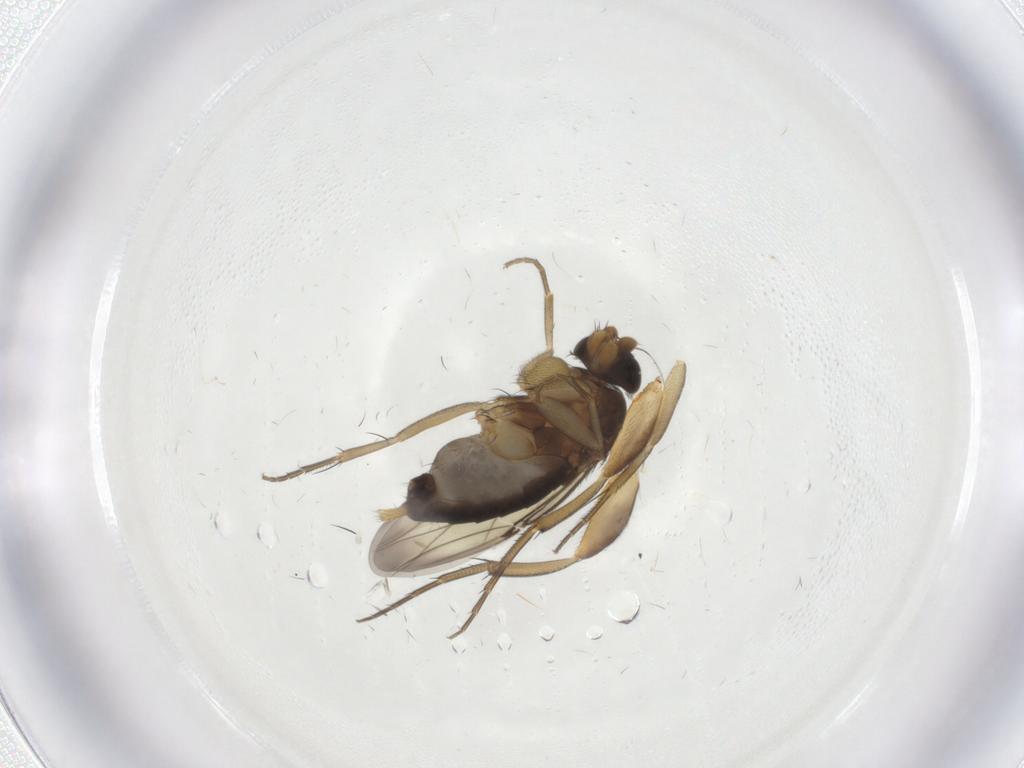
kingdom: Animalia
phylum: Arthropoda
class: Insecta
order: Diptera
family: Phoridae
